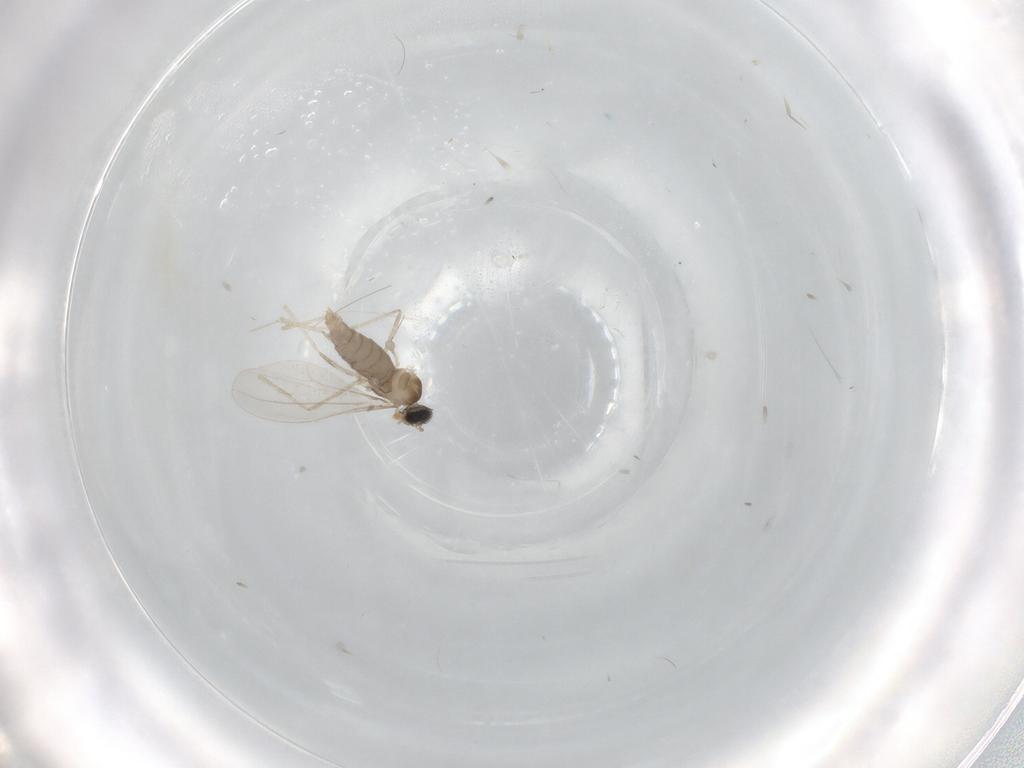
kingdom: Animalia
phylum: Arthropoda
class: Insecta
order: Diptera
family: Cecidomyiidae
